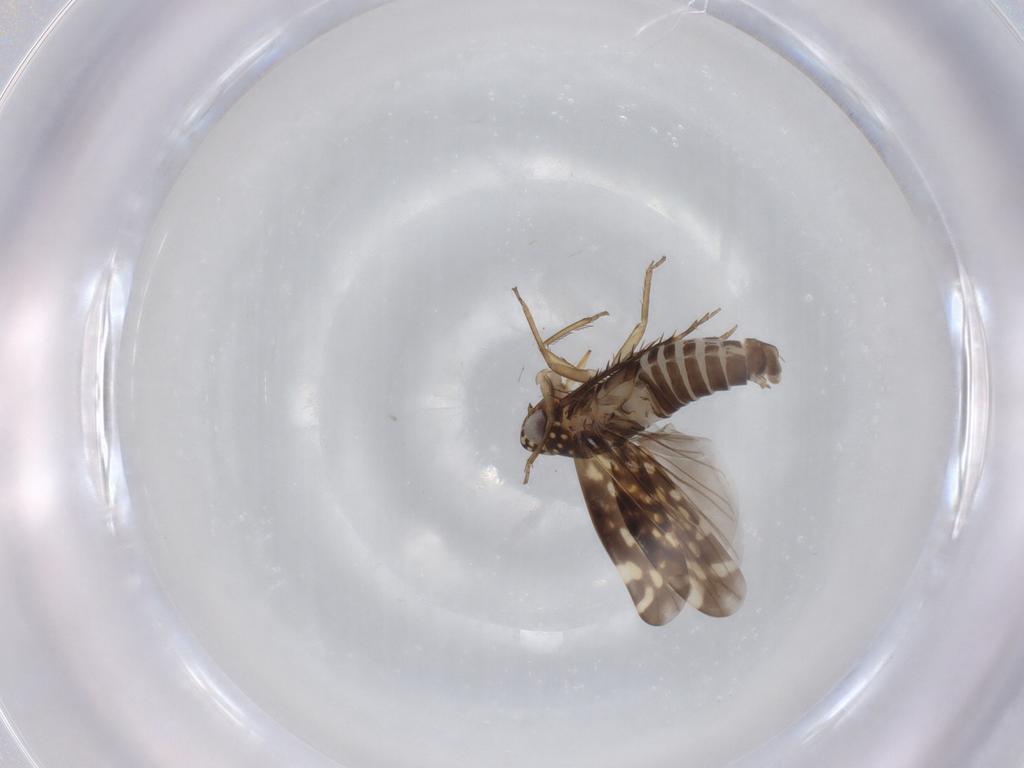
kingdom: Animalia
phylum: Arthropoda
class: Insecta
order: Hemiptera
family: Cicadellidae
